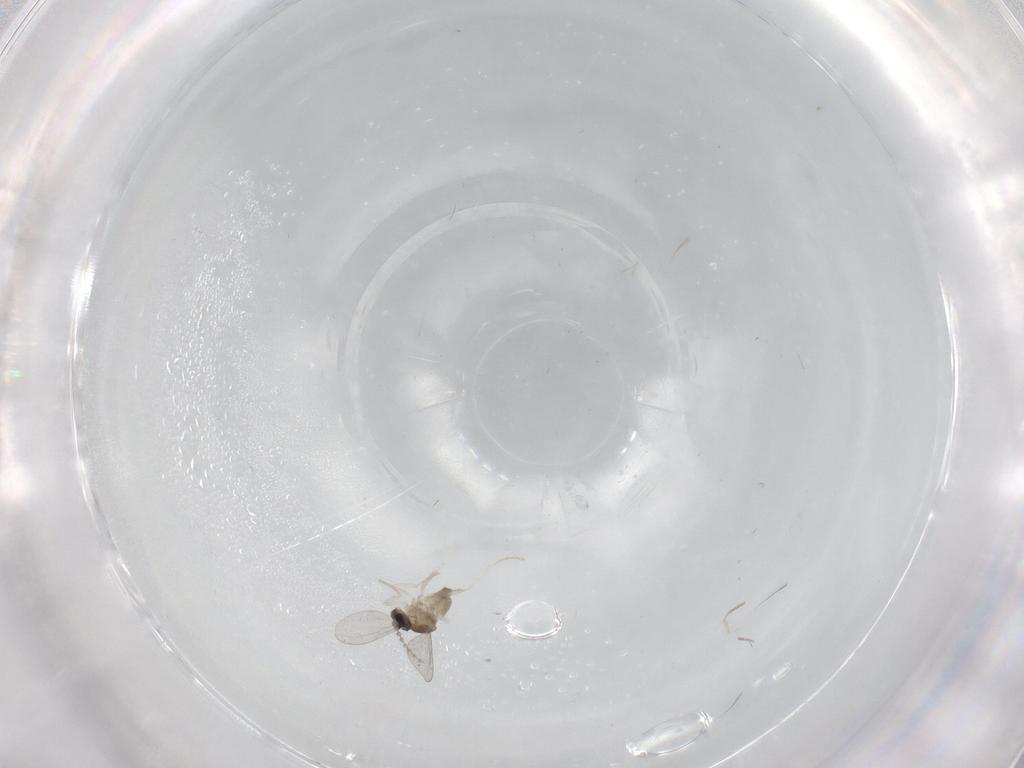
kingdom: Animalia
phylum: Arthropoda
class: Insecta
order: Diptera
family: Cecidomyiidae
